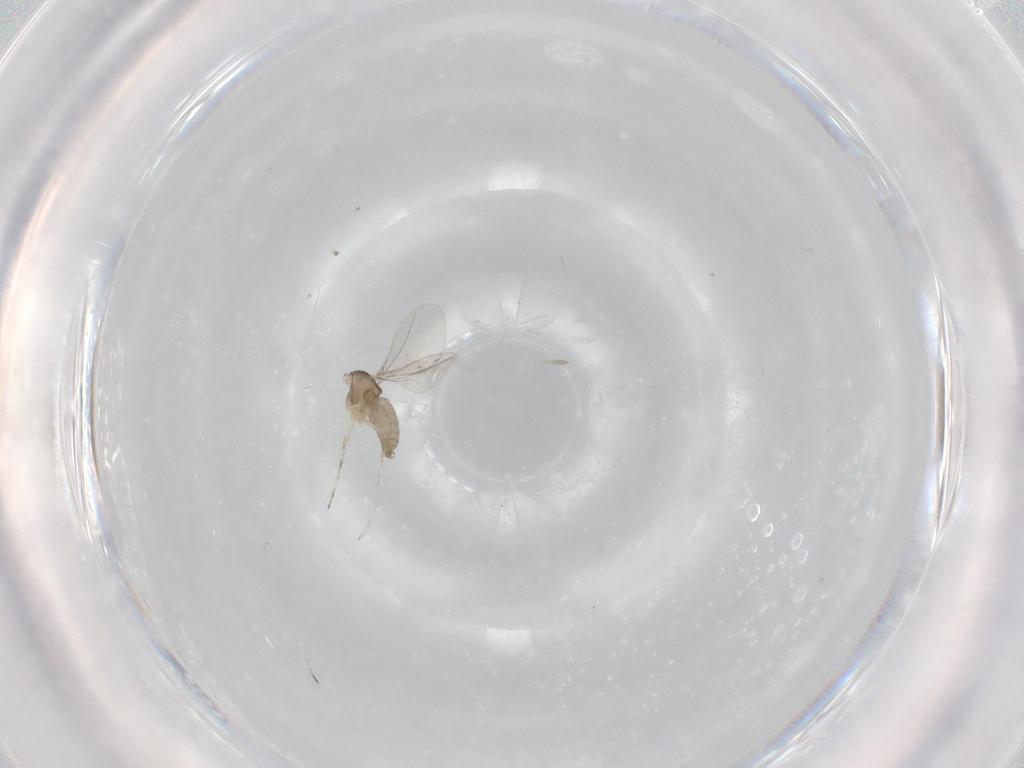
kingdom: Animalia
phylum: Arthropoda
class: Insecta
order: Diptera
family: Cecidomyiidae
